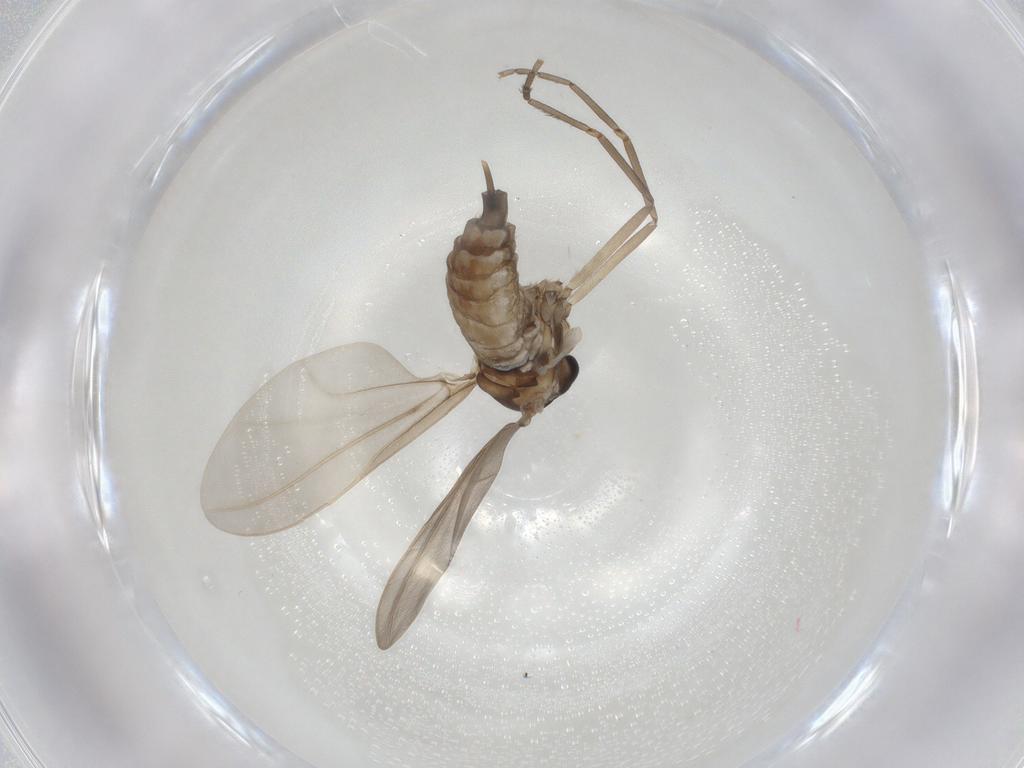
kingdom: Animalia
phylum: Arthropoda
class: Insecta
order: Diptera
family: Cecidomyiidae
